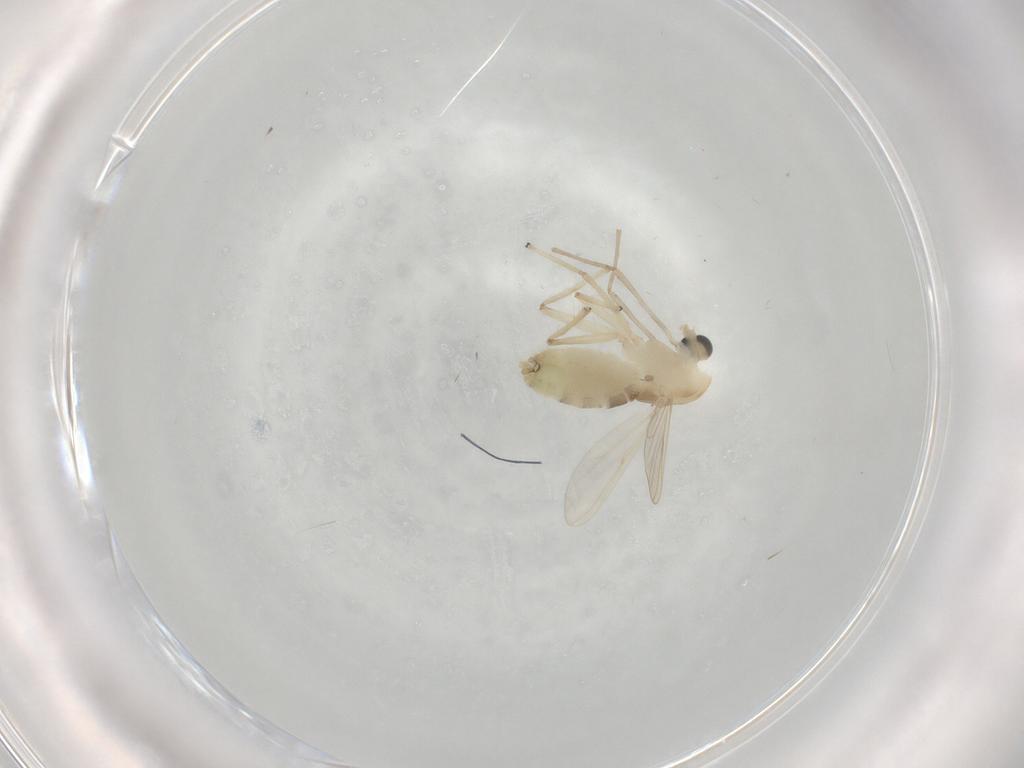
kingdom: Animalia
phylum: Arthropoda
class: Insecta
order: Diptera
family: Chironomidae
